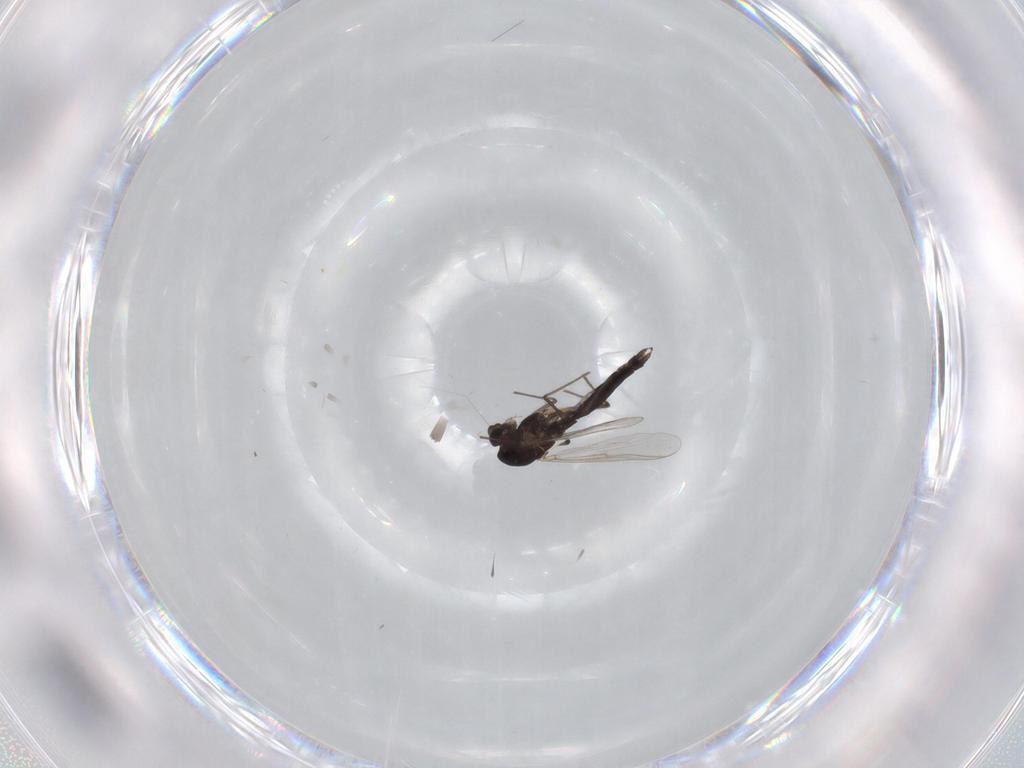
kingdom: Animalia
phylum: Arthropoda
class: Insecta
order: Diptera
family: Chironomidae
